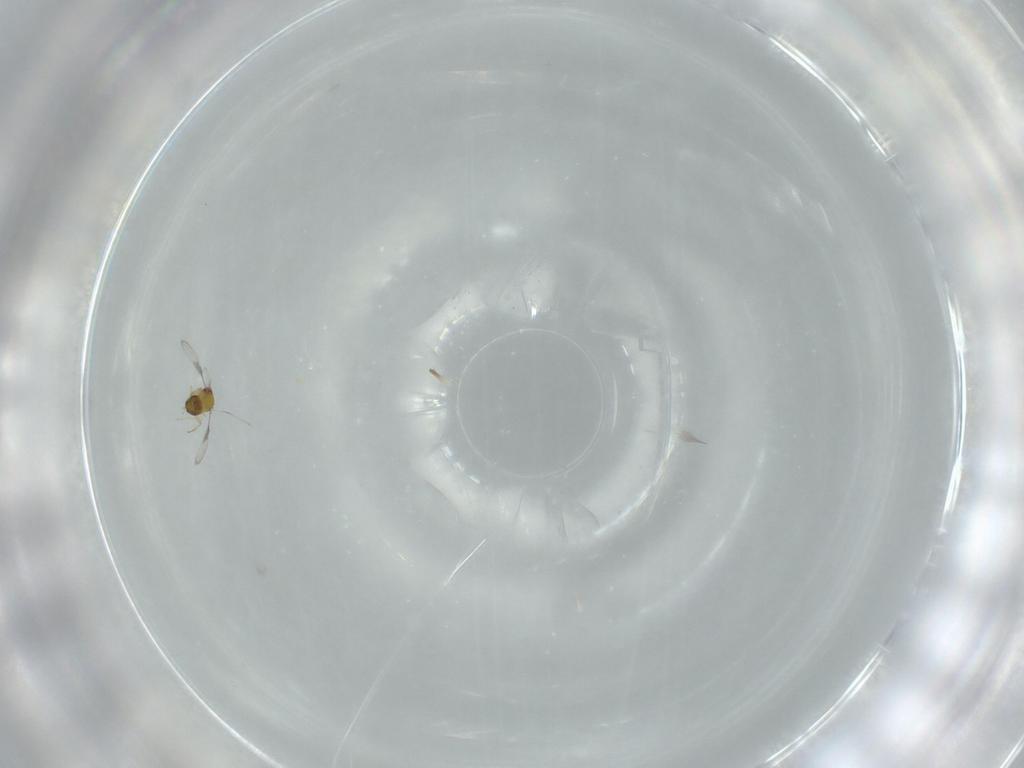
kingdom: Animalia
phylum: Arthropoda
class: Insecta
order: Hymenoptera
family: Trichogrammatidae
